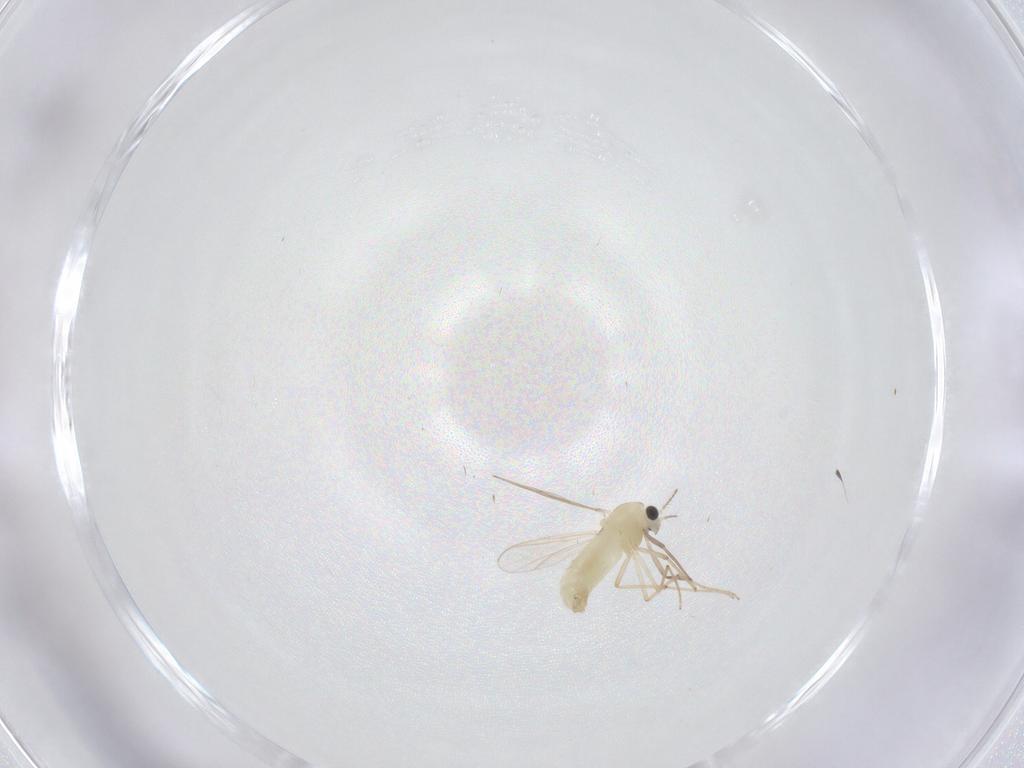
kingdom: Animalia
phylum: Arthropoda
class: Insecta
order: Diptera
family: Chironomidae
